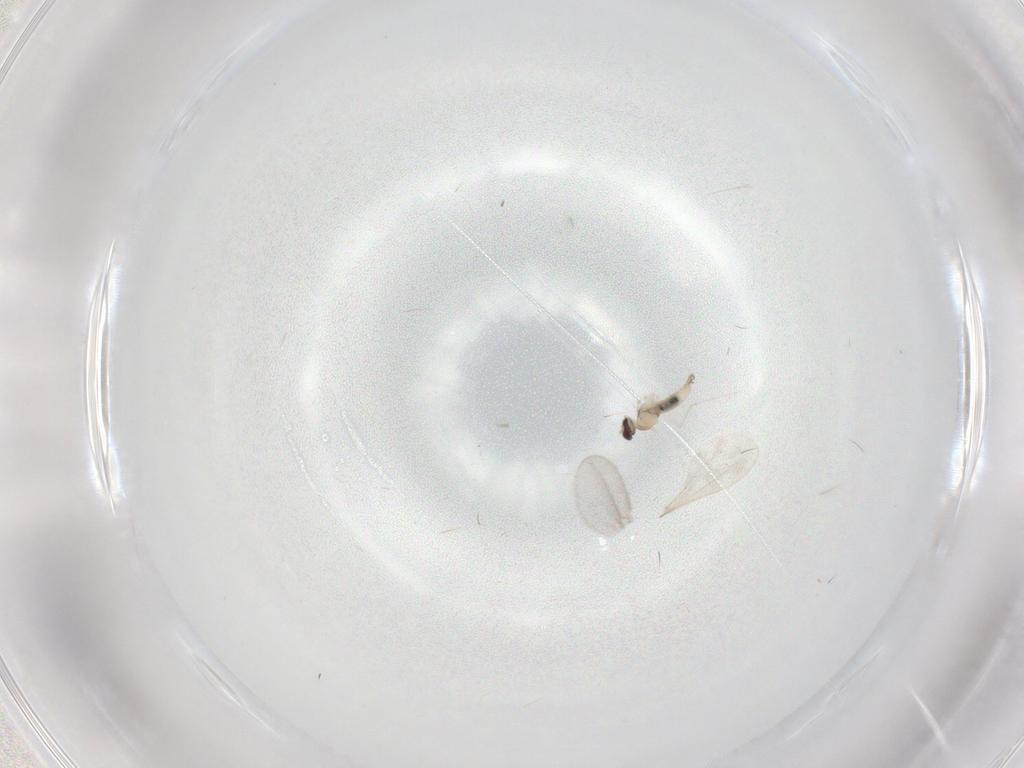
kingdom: Animalia
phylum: Arthropoda
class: Insecta
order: Diptera
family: Cecidomyiidae
